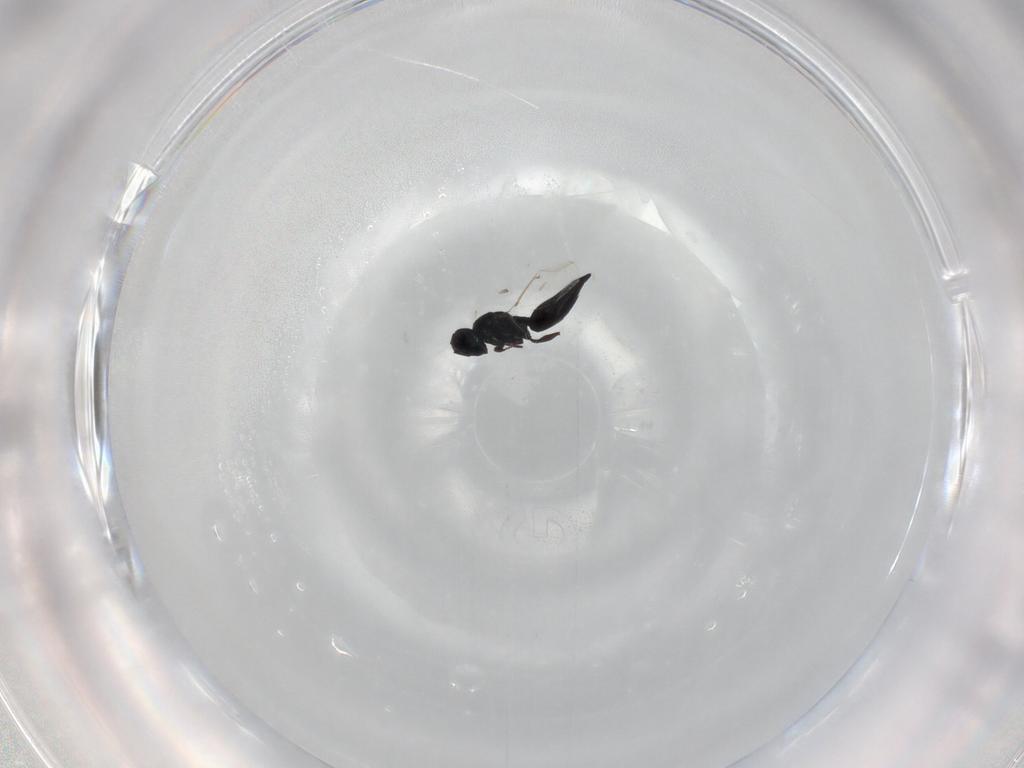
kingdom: Animalia
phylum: Arthropoda
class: Insecta
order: Hymenoptera
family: Eulophidae
